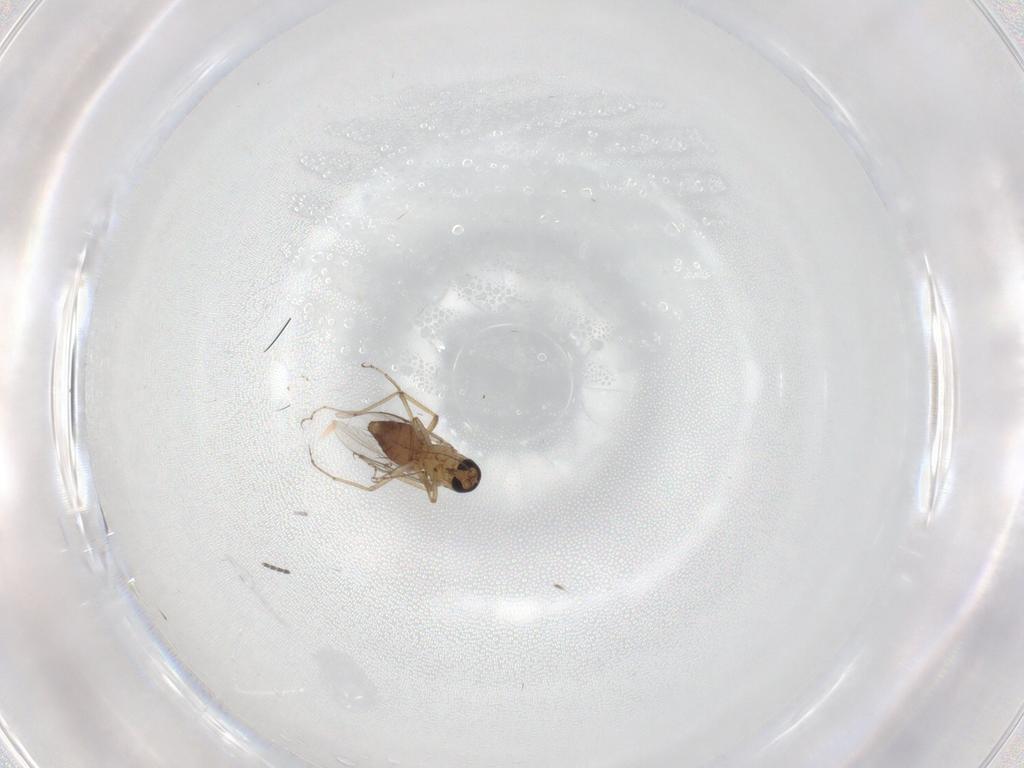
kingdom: Animalia
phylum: Arthropoda
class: Insecta
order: Diptera
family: Sciaridae
